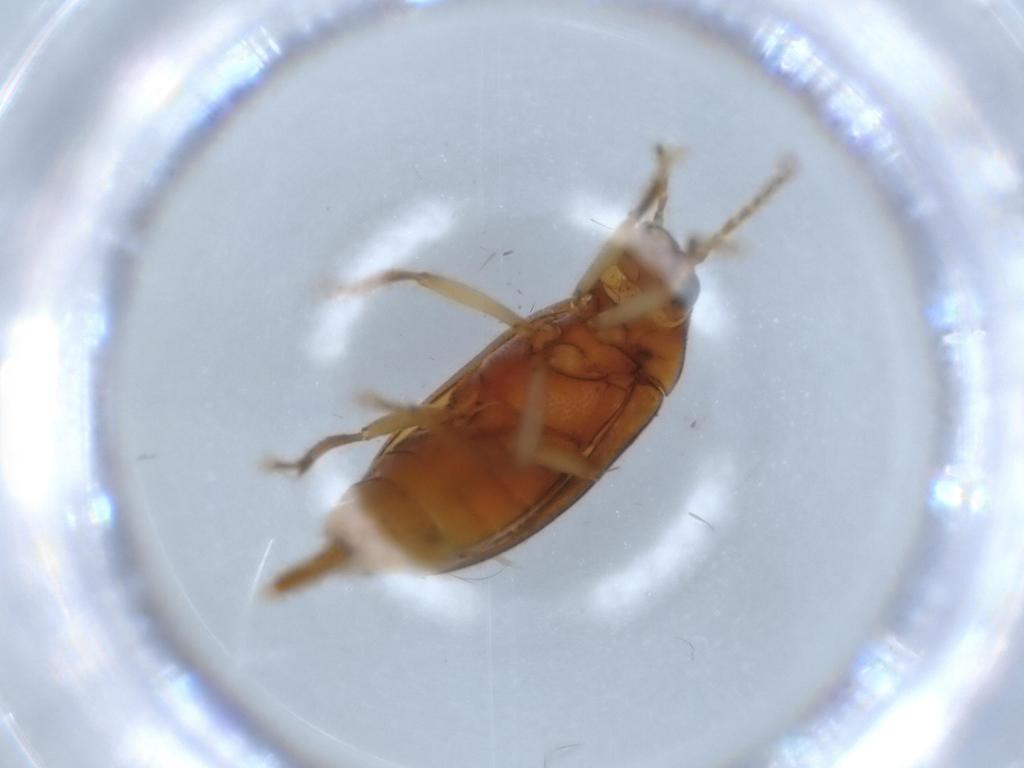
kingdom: Animalia
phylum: Arthropoda
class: Insecta
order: Coleoptera
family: Ptilodactylidae
